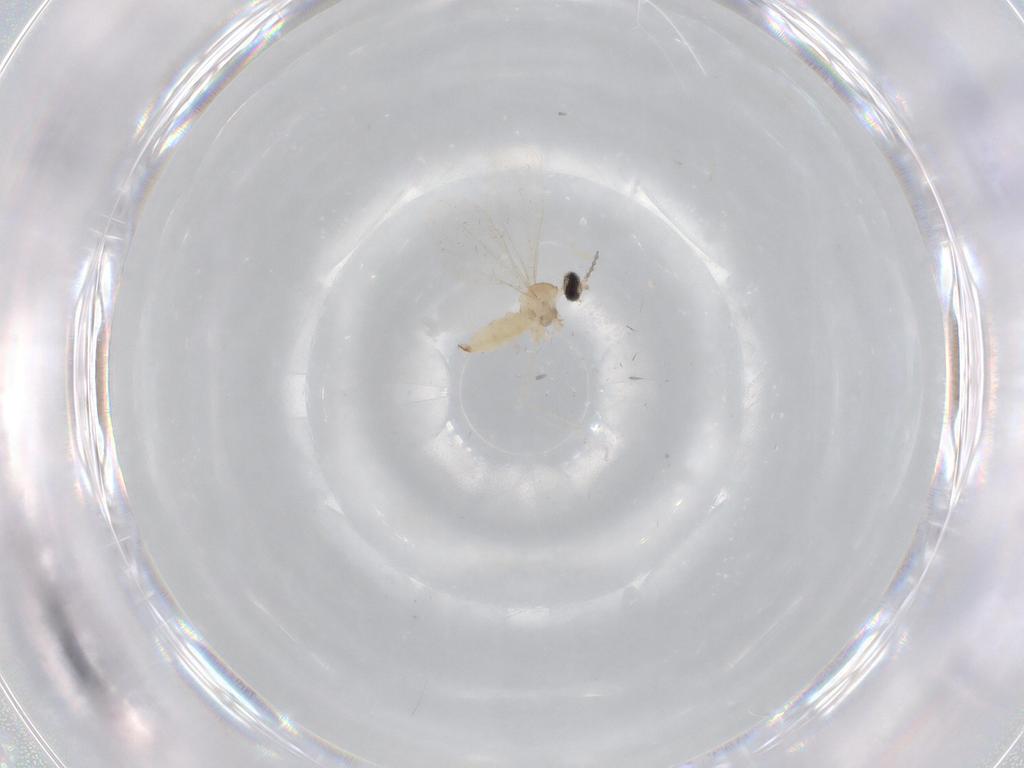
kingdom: Animalia
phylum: Arthropoda
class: Insecta
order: Diptera
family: Cecidomyiidae
